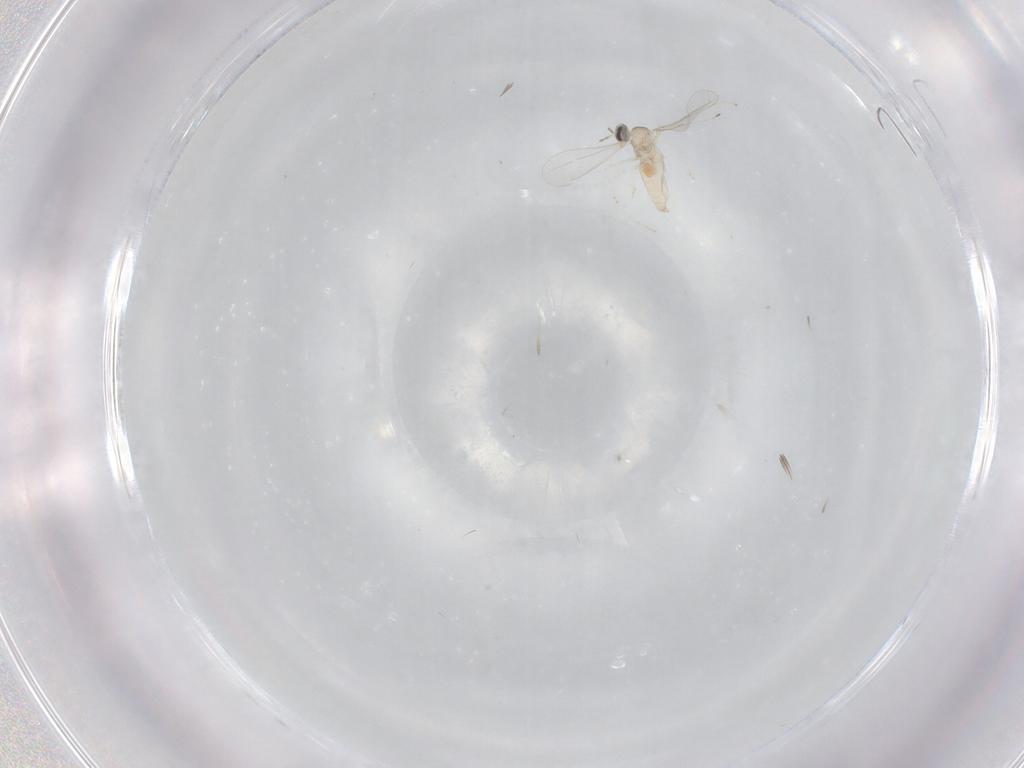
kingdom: Animalia
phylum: Arthropoda
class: Insecta
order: Diptera
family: Cecidomyiidae
